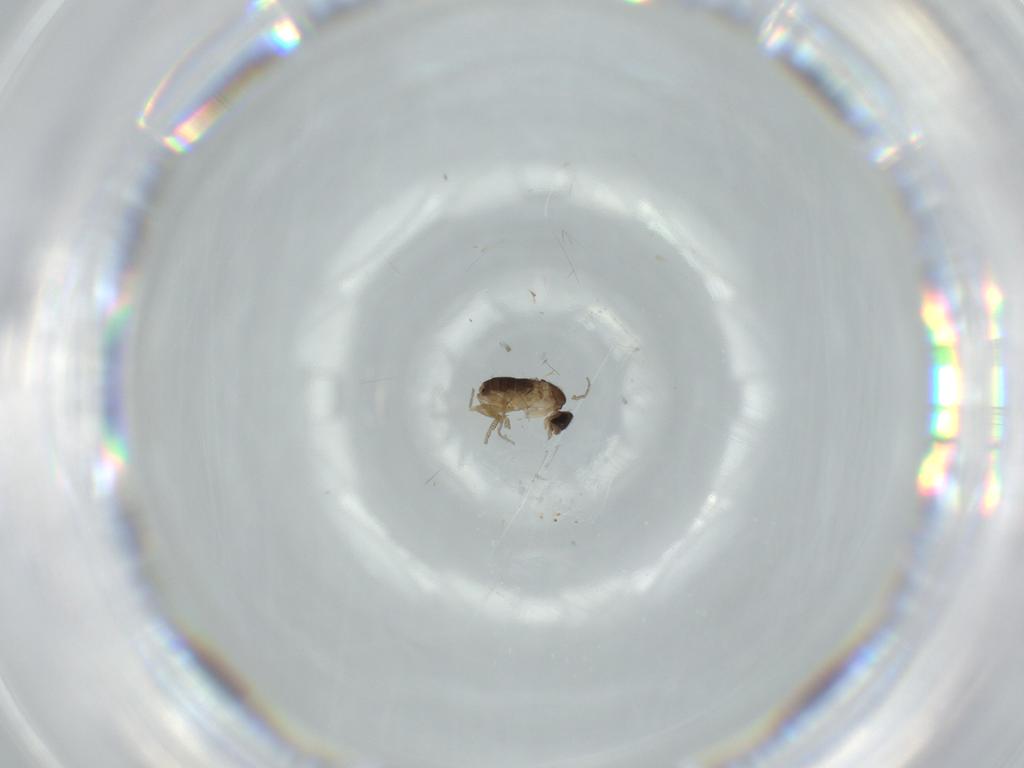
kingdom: Animalia
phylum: Arthropoda
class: Insecta
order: Diptera
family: Phoridae
